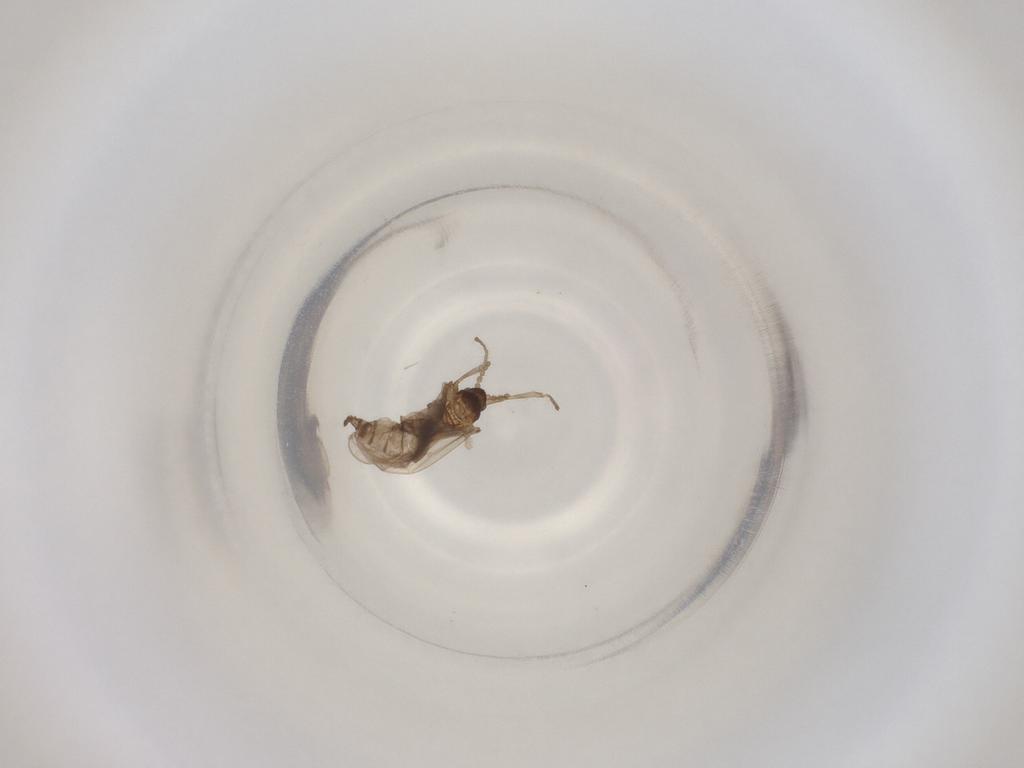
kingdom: Animalia
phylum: Arthropoda
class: Insecta
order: Diptera
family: Cecidomyiidae
